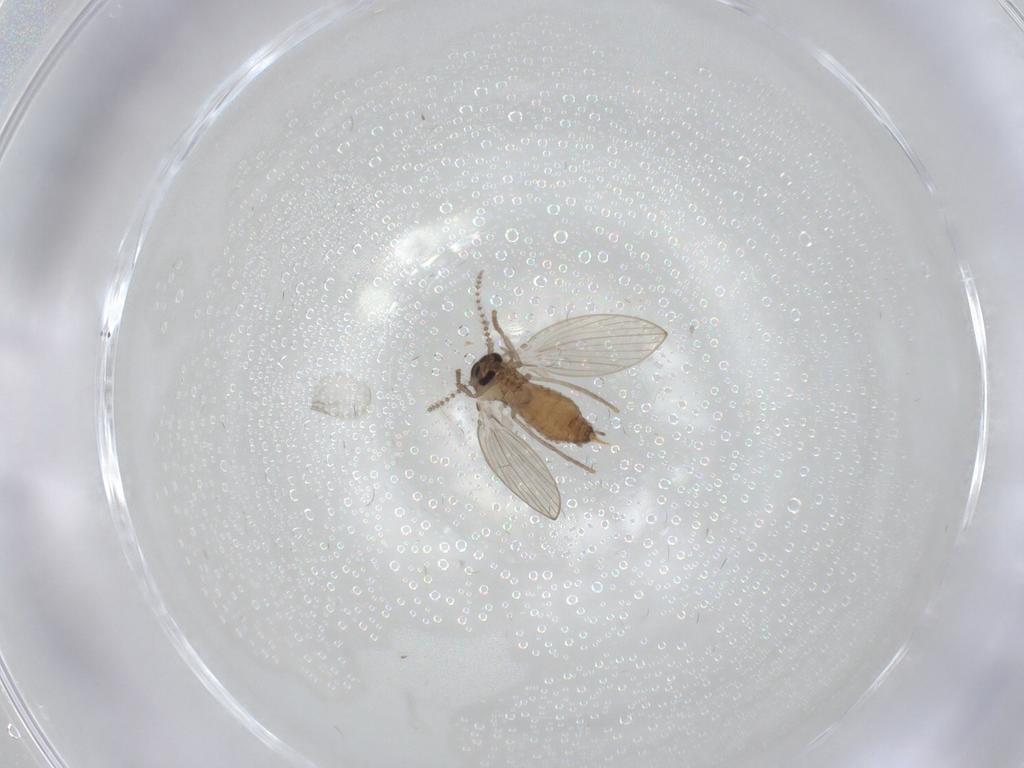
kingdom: Animalia
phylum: Arthropoda
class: Insecta
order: Diptera
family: Psychodidae
